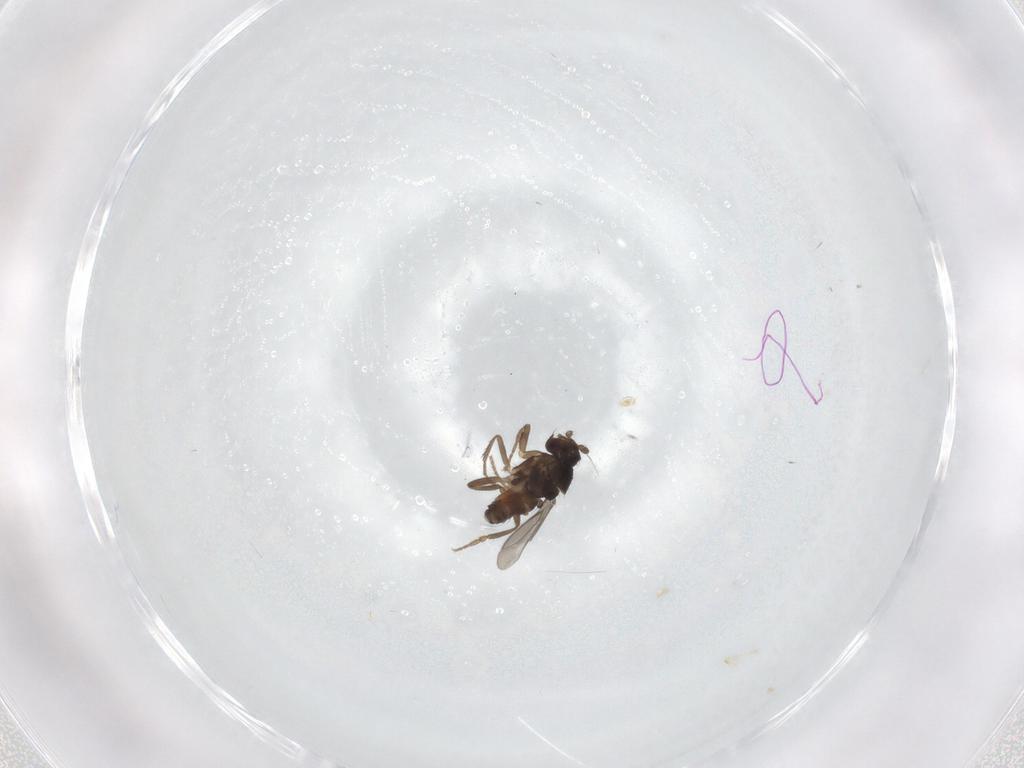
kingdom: Animalia
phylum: Arthropoda
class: Insecta
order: Diptera
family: Sphaeroceridae
